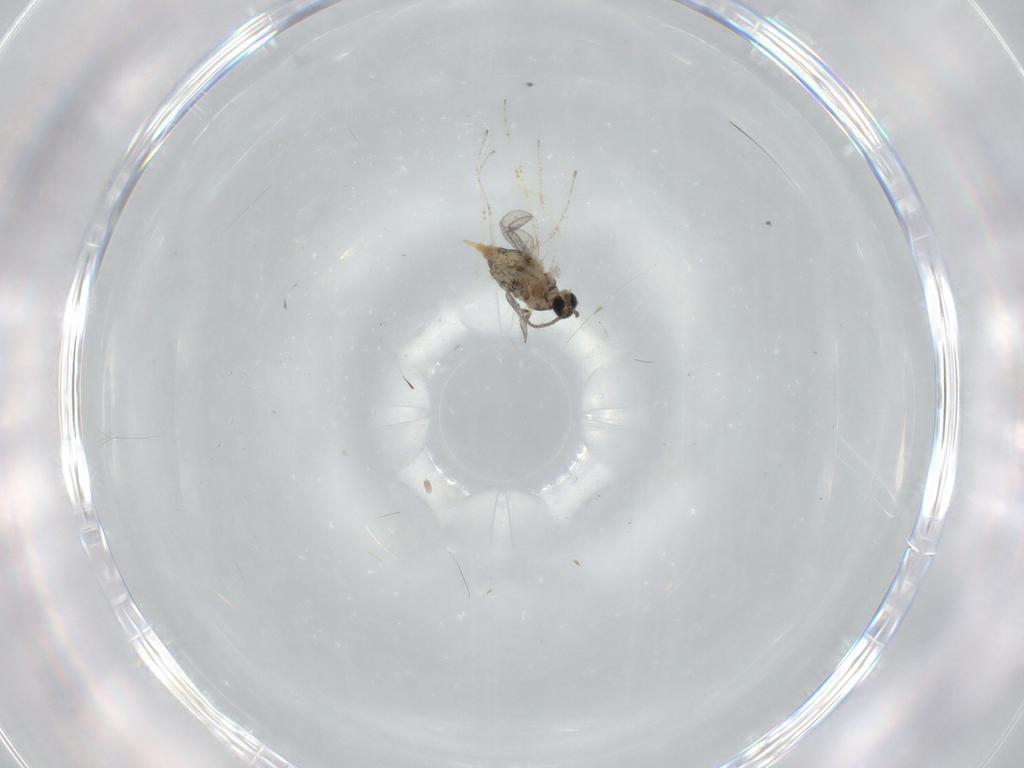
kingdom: Animalia
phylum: Arthropoda
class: Insecta
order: Diptera
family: Cecidomyiidae
